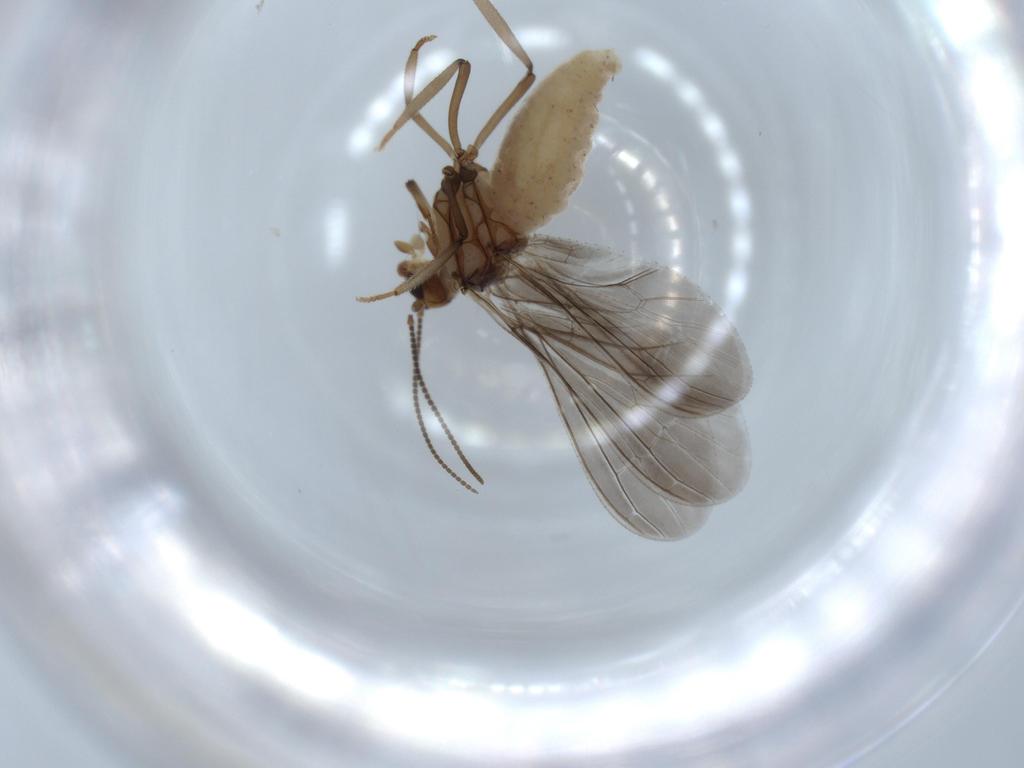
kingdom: Animalia
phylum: Arthropoda
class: Insecta
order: Neuroptera
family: Coniopterygidae
